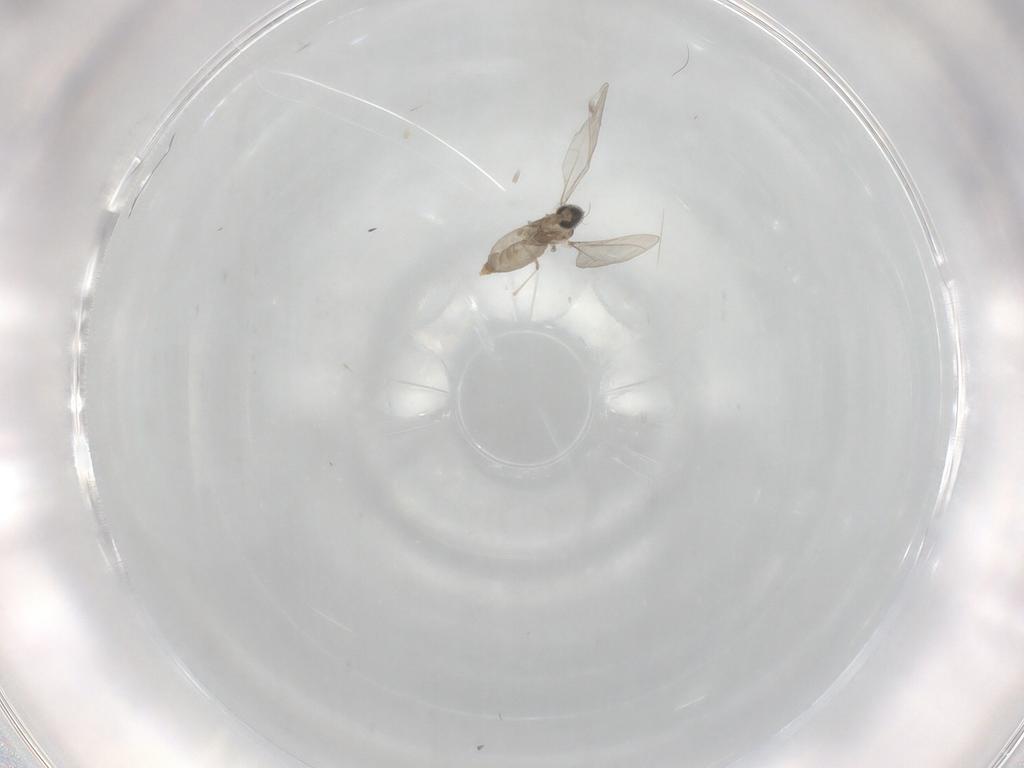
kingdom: Animalia
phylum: Arthropoda
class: Insecta
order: Diptera
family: Cecidomyiidae
